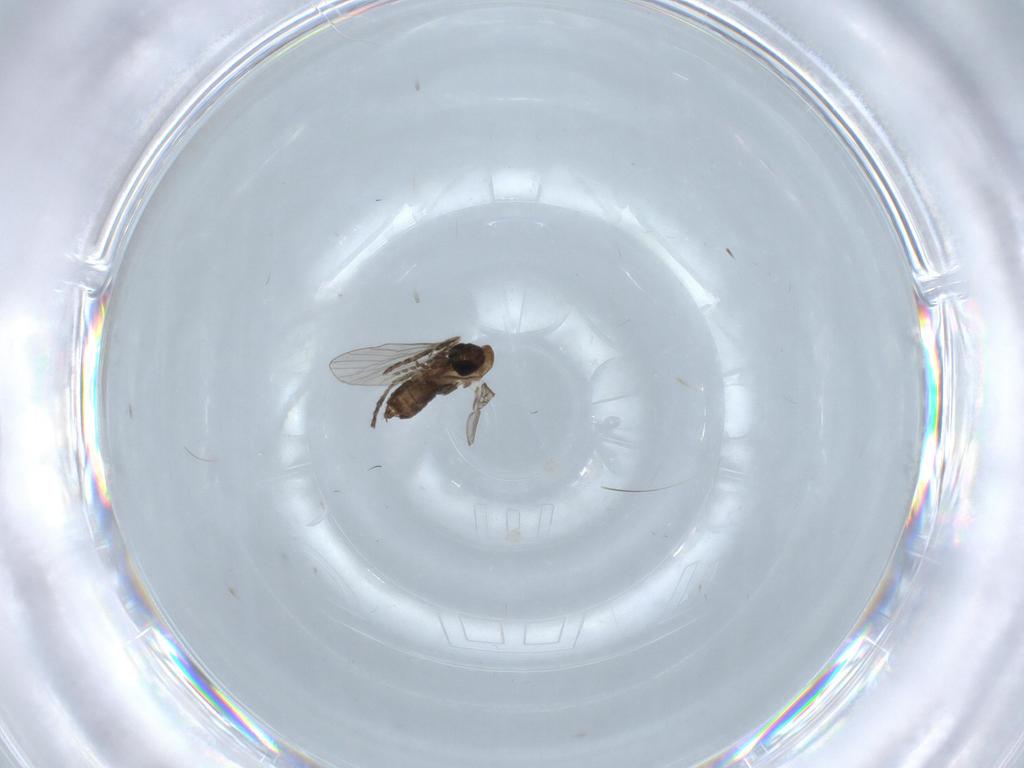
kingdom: Animalia
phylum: Arthropoda
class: Insecta
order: Diptera
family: Psychodidae
